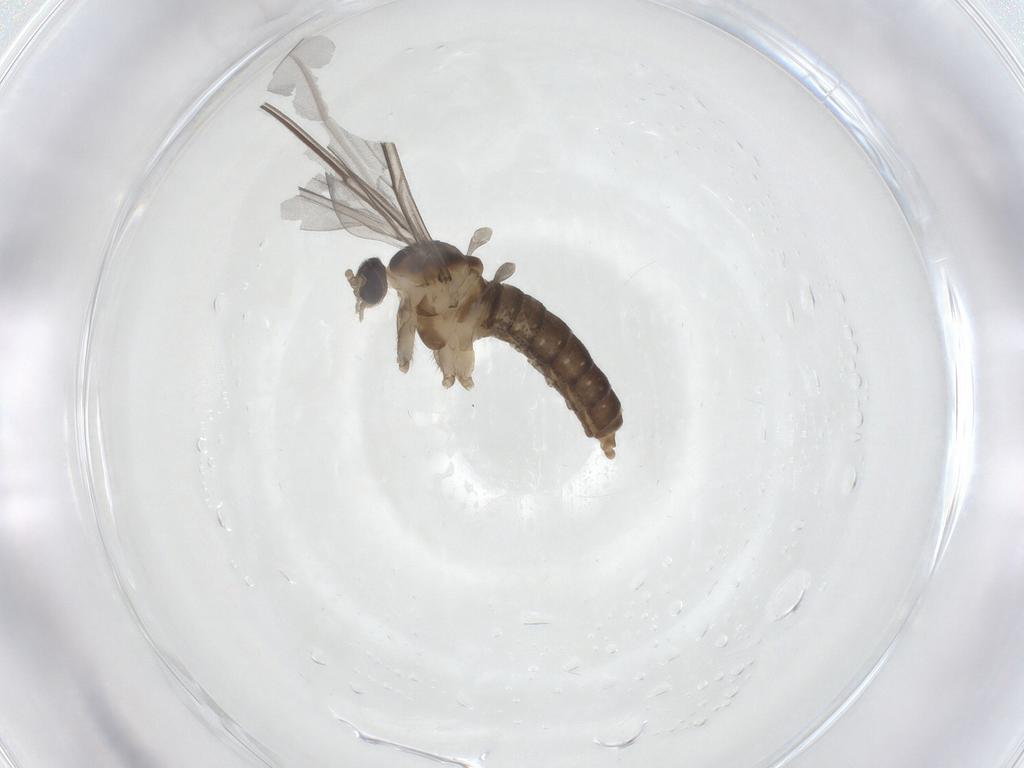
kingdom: Animalia
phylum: Arthropoda
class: Insecta
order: Diptera
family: Cecidomyiidae
